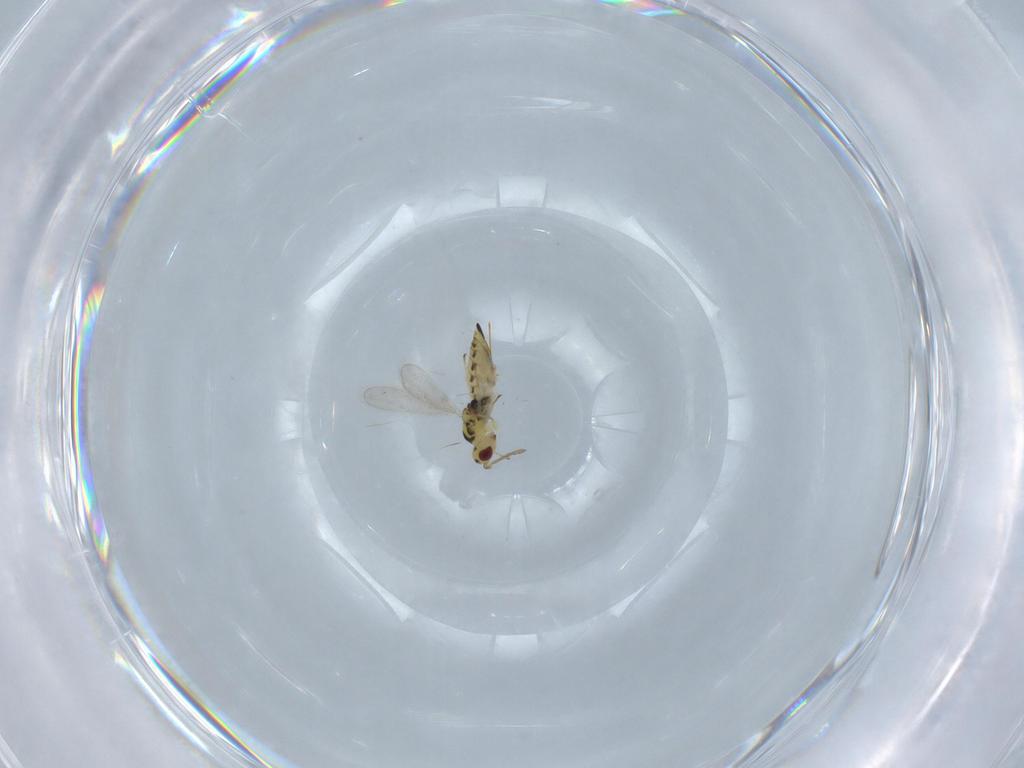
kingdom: Animalia
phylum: Arthropoda
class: Insecta
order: Hymenoptera
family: Eulophidae
